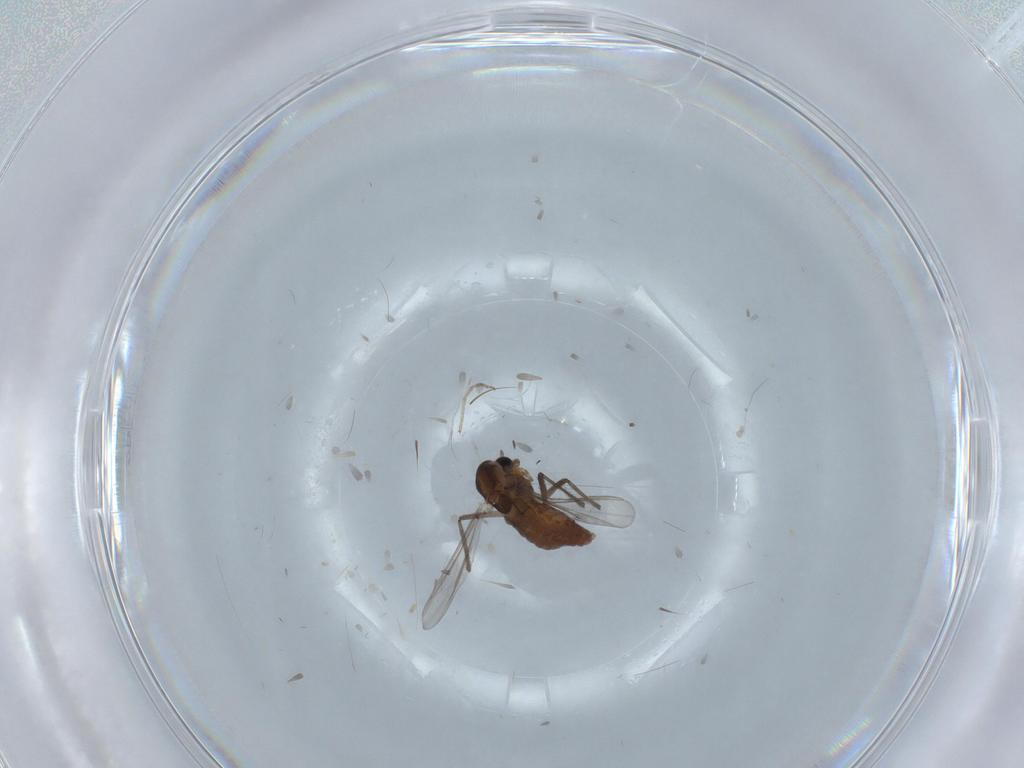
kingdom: Animalia
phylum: Arthropoda
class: Insecta
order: Diptera
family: Chironomidae
